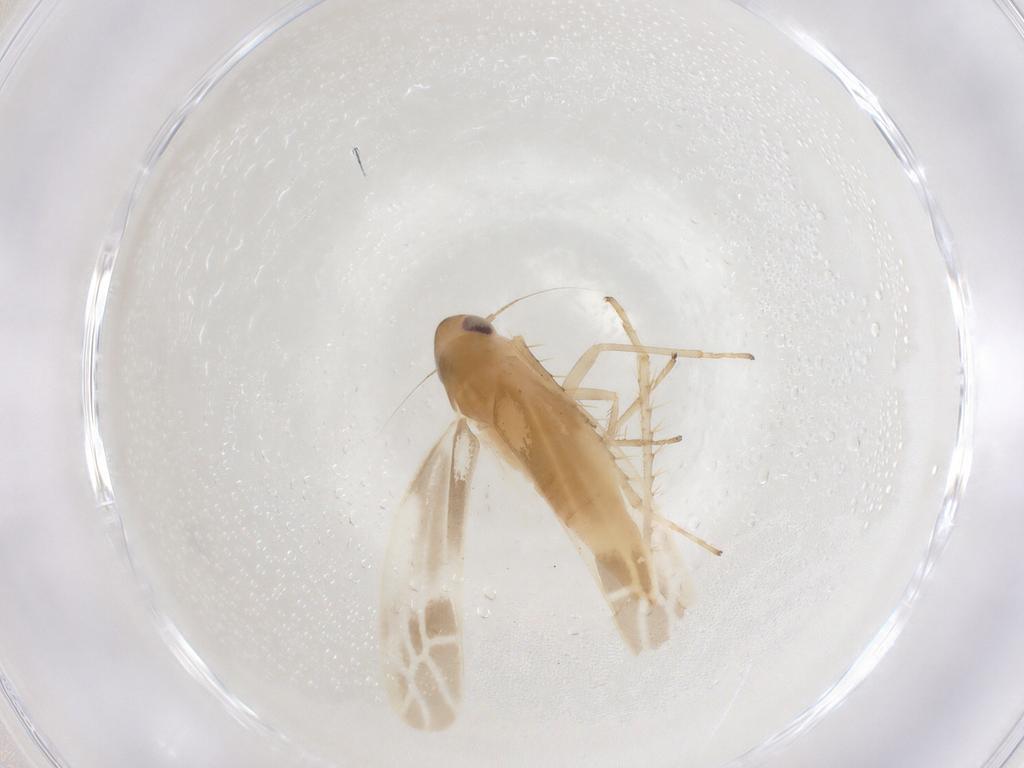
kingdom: Animalia
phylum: Arthropoda
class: Insecta
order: Hemiptera
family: Cicadellidae
